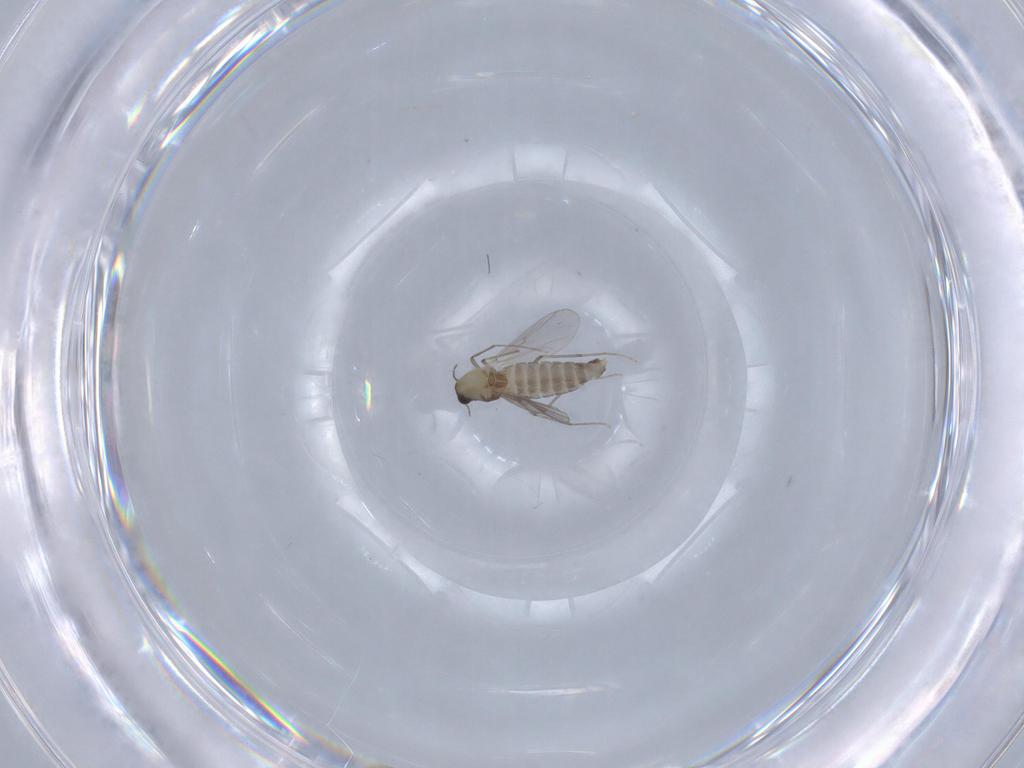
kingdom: Animalia
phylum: Arthropoda
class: Insecta
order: Diptera
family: Chironomidae
